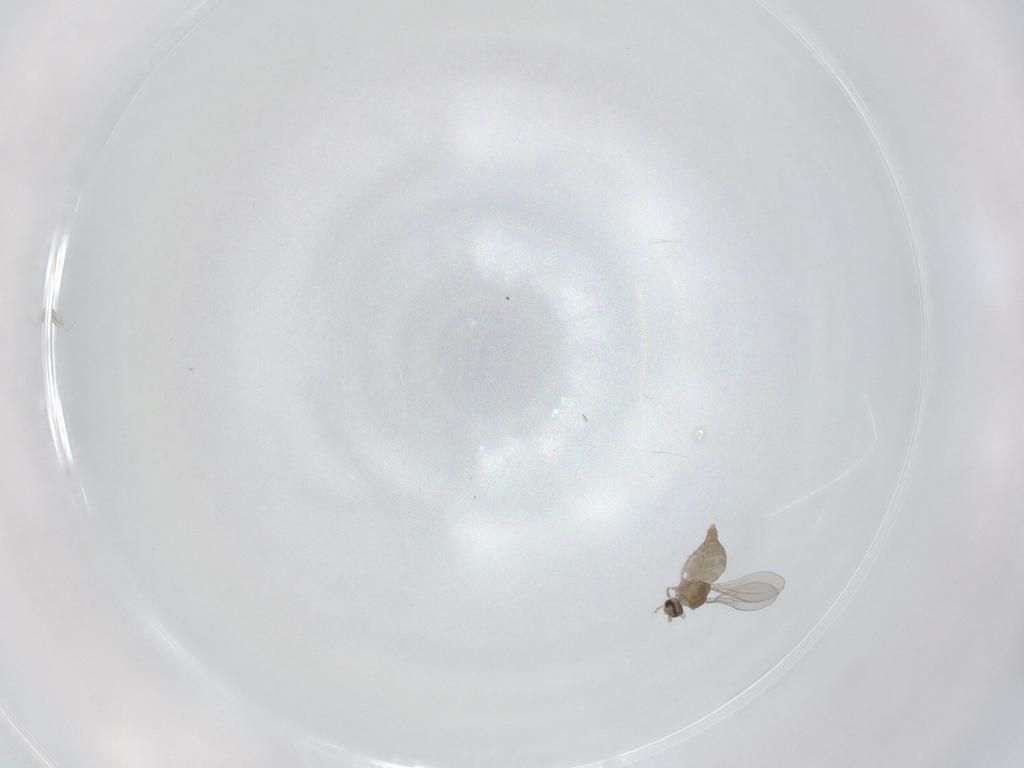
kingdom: Animalia
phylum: Arthropoda
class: Insecta
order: Diptera
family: Cecidomyiidae
